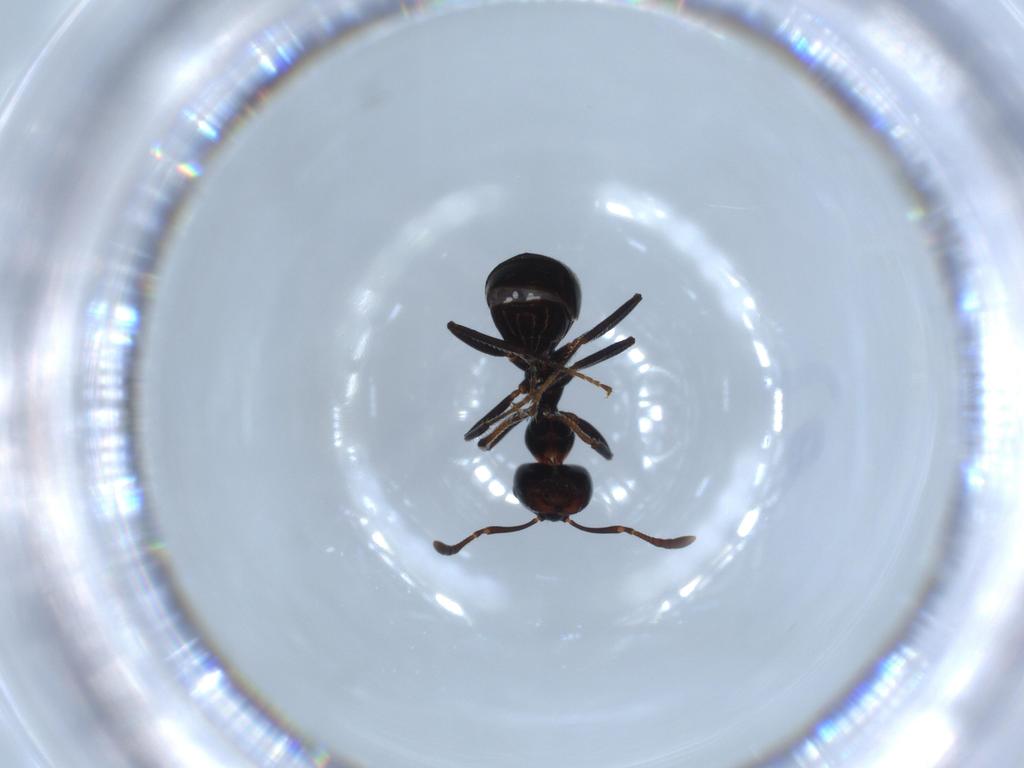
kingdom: Animalia
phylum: Arthropoda
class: Insecta
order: Hymenoptera
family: Formicidae
